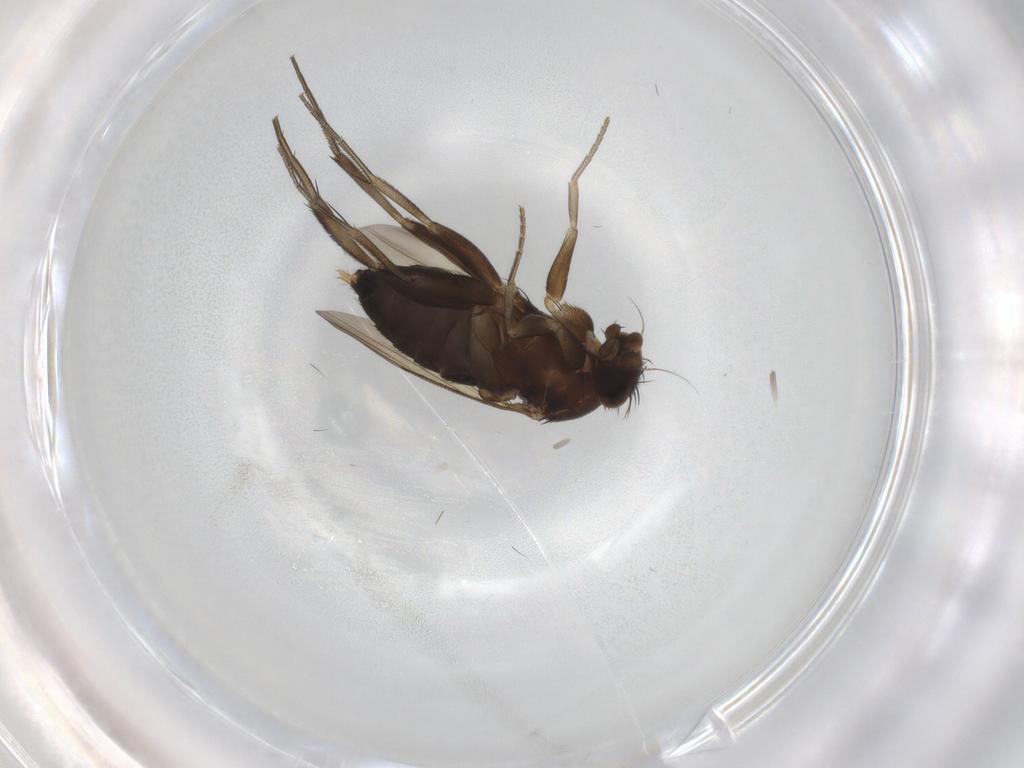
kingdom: Animalia
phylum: Arthropoda
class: Insecta
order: Diptera
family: Phoridae
